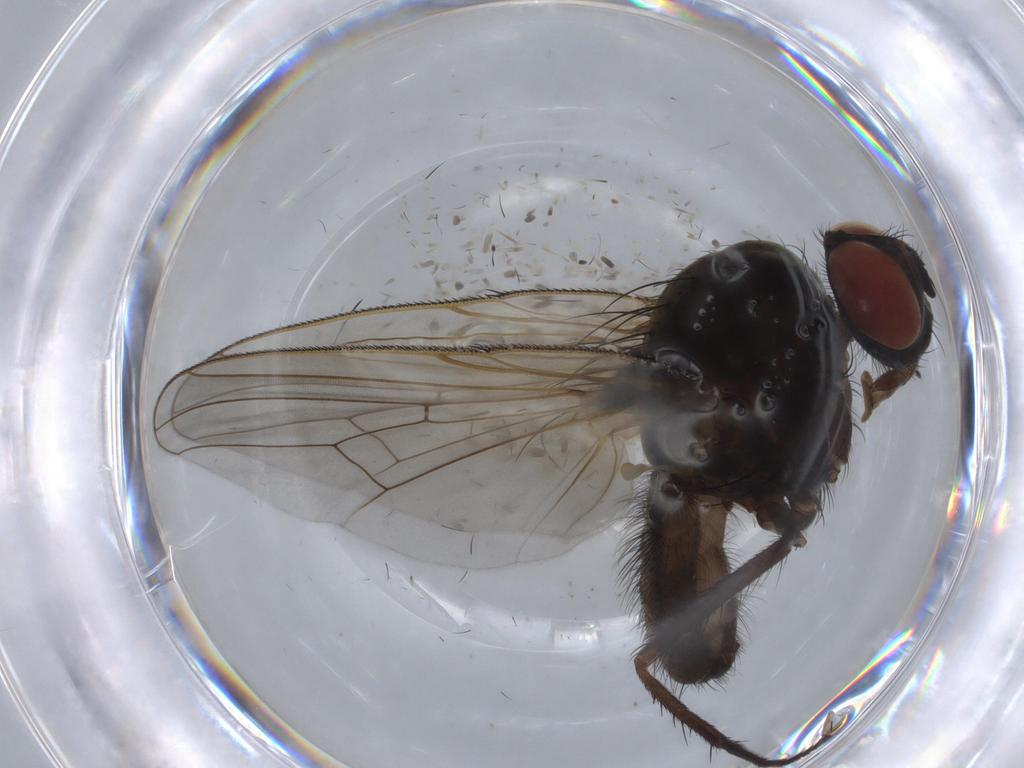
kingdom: Animalia
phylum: Arthropoda
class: Insecta
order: Diptera
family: Anthomyiidae
